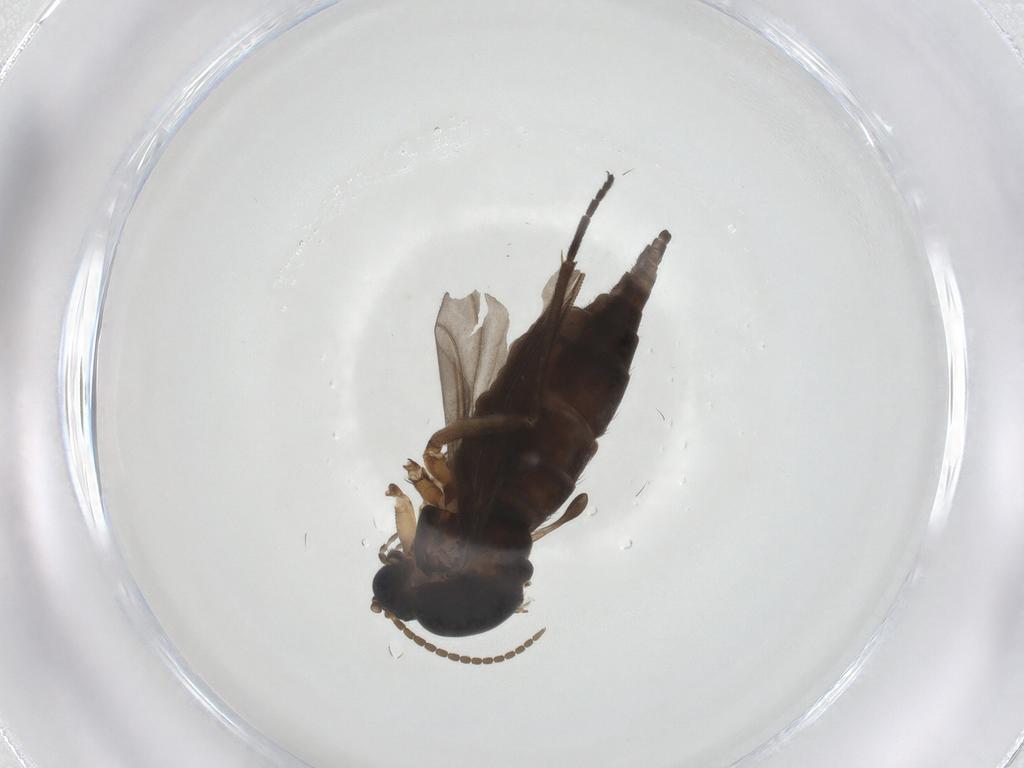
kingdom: Animalia
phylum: Arthropoda
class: Insecta
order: Diptera
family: Sciaridae
